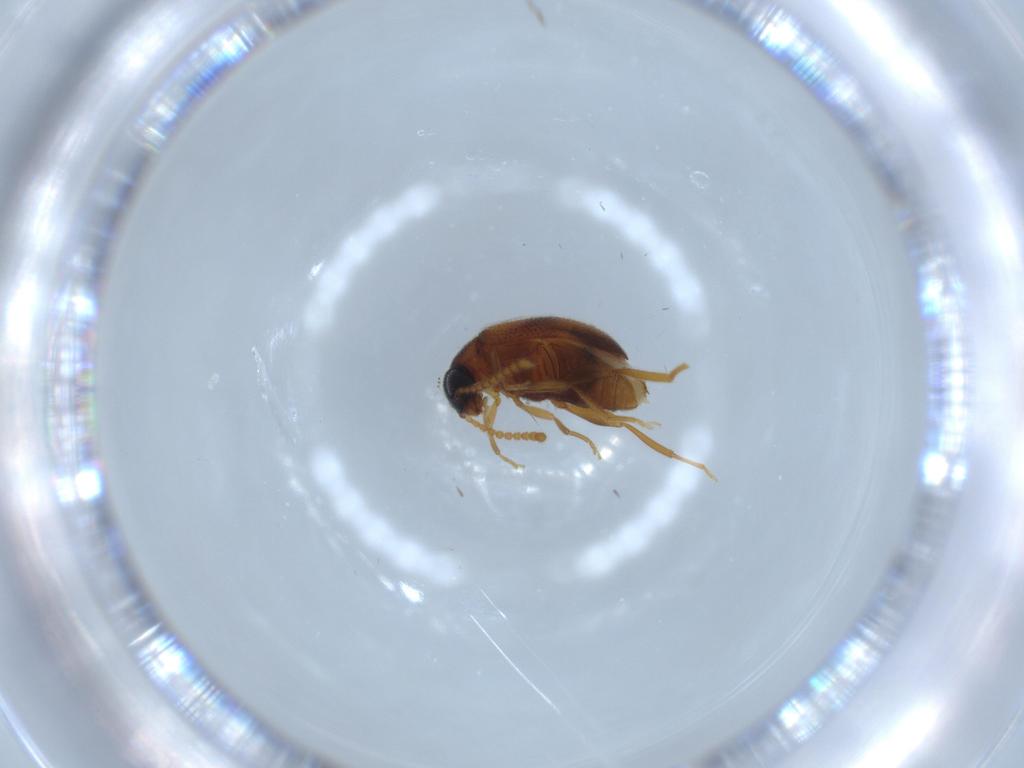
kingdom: Animalia
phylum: Arthropoda
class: Insecta
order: Coleoptera
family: Aderidae
